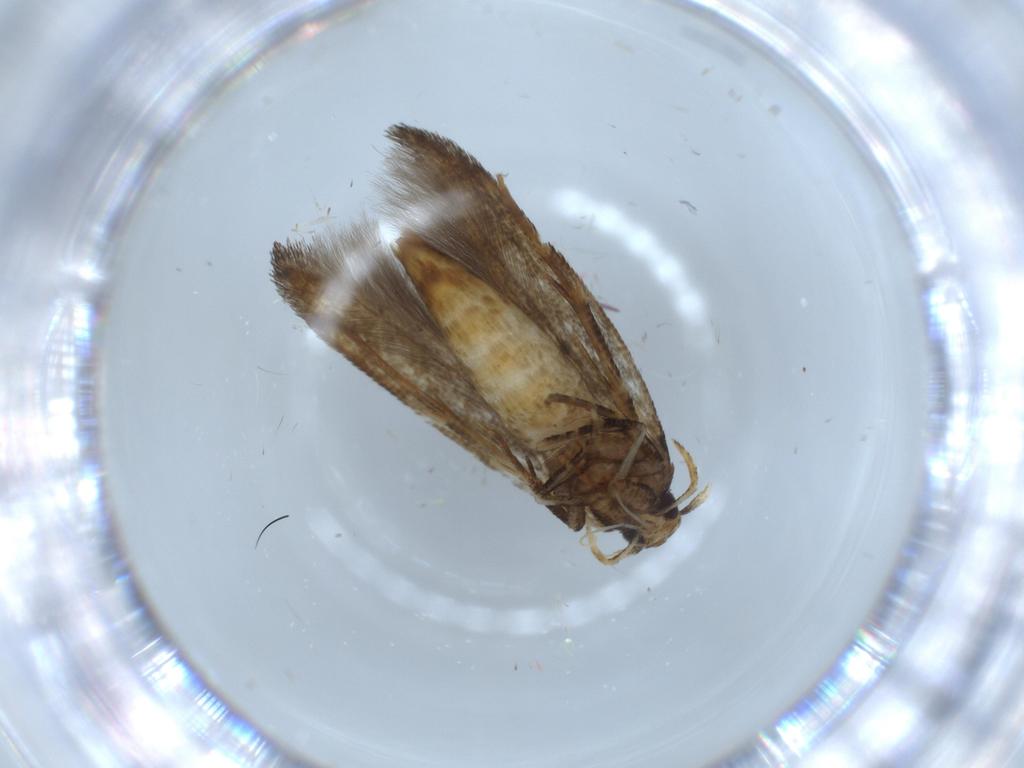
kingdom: Animalia
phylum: Arthropoda
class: Insecta
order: Lepidoptera
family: Cosmopterigidae
